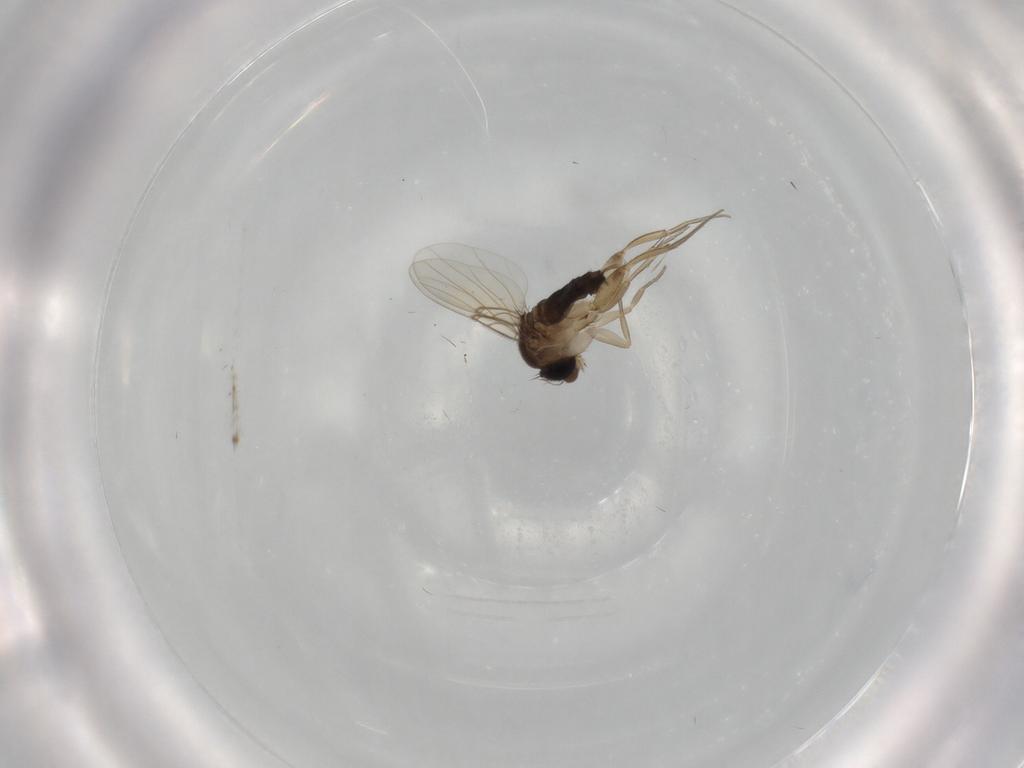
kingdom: Animalia
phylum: Arthropoda
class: Insecta
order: Diptera
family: Phoridae
